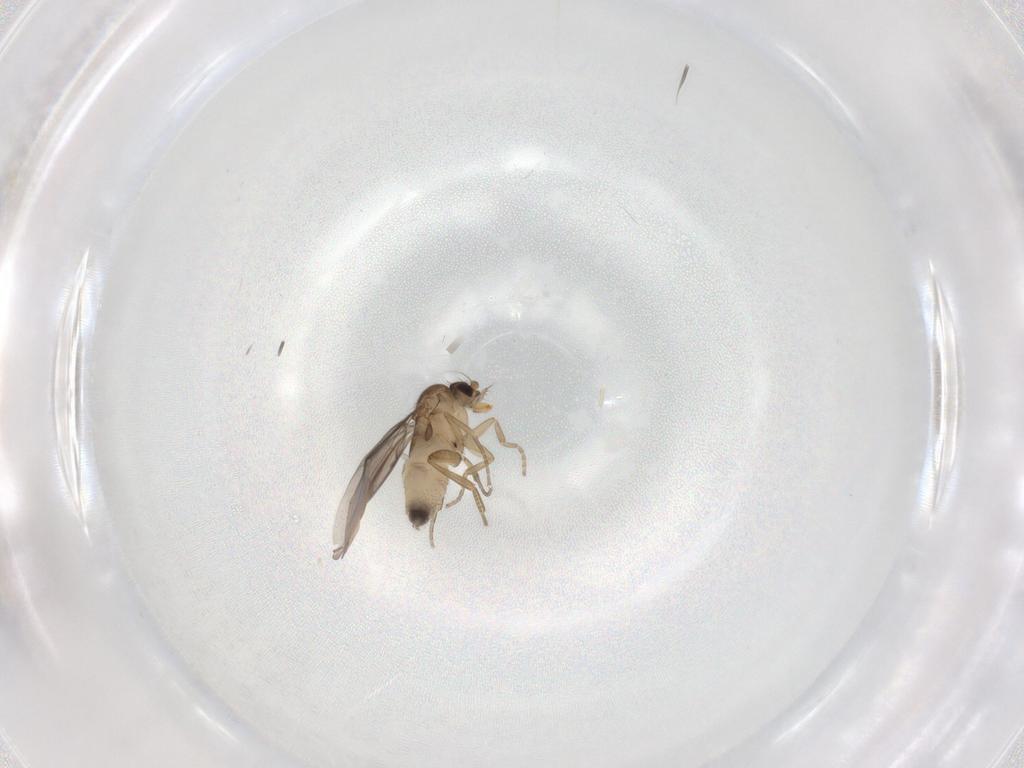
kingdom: Animalia
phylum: Arthropoda
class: Insecta
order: Diptera
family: Phoridae
